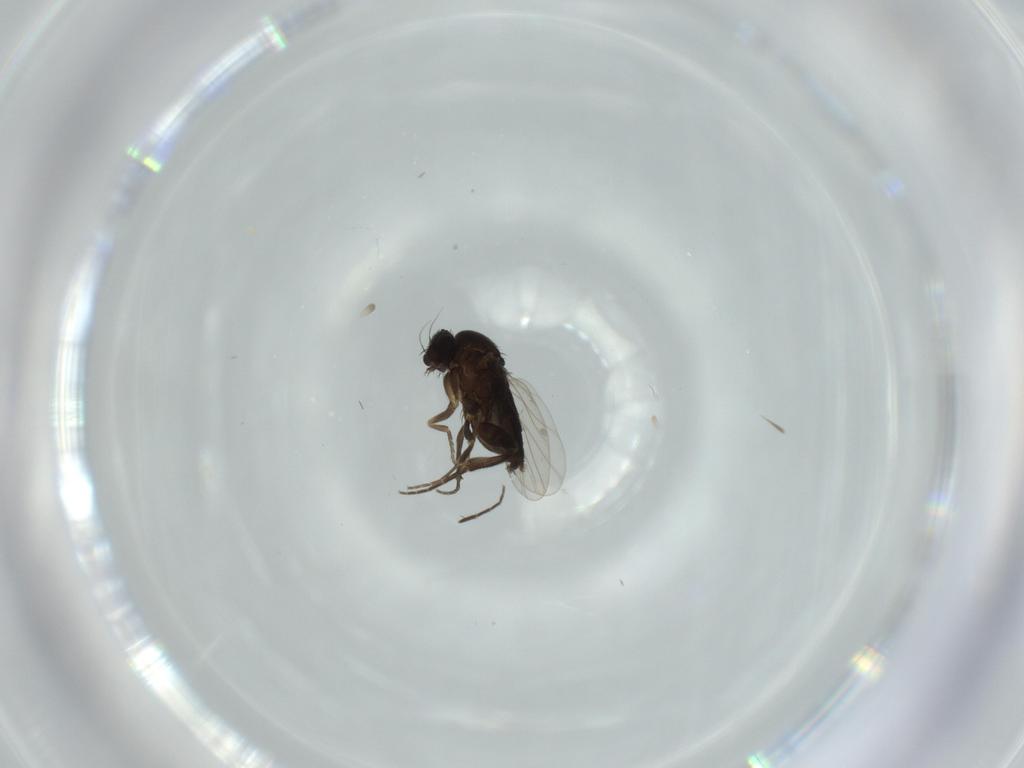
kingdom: Animalia
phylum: Arthropoda
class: Insecta
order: Diptera
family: Phoridae
